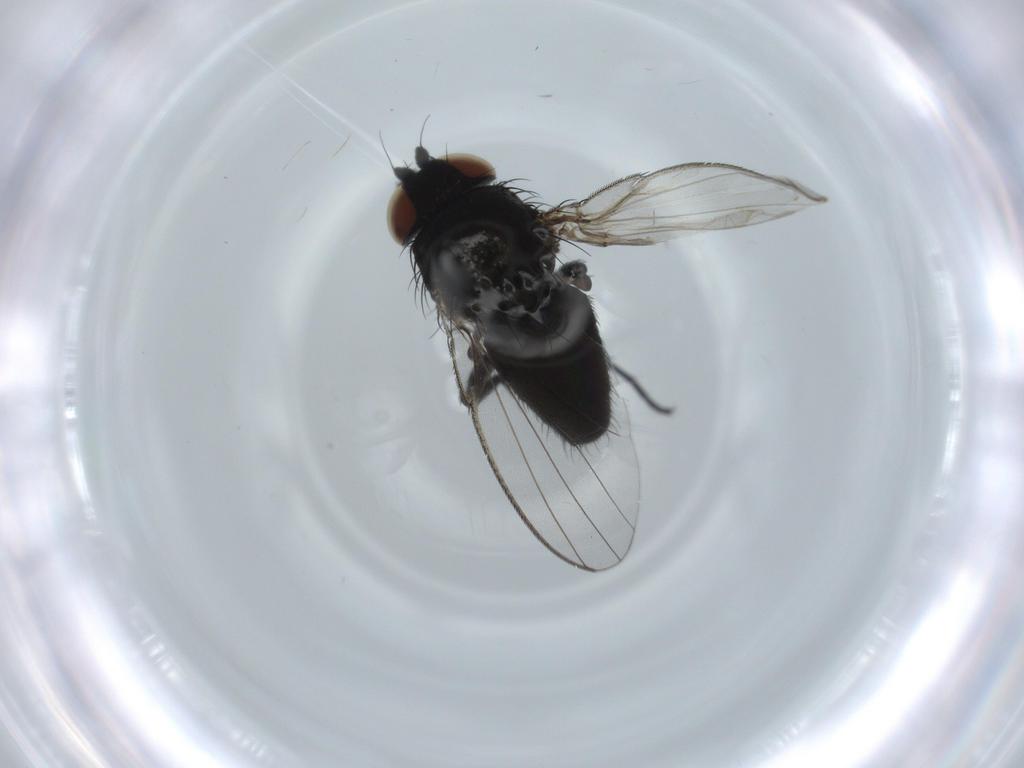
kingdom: Animalia
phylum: Arthropoda
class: Insecta
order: Diptera
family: Milichiidae
